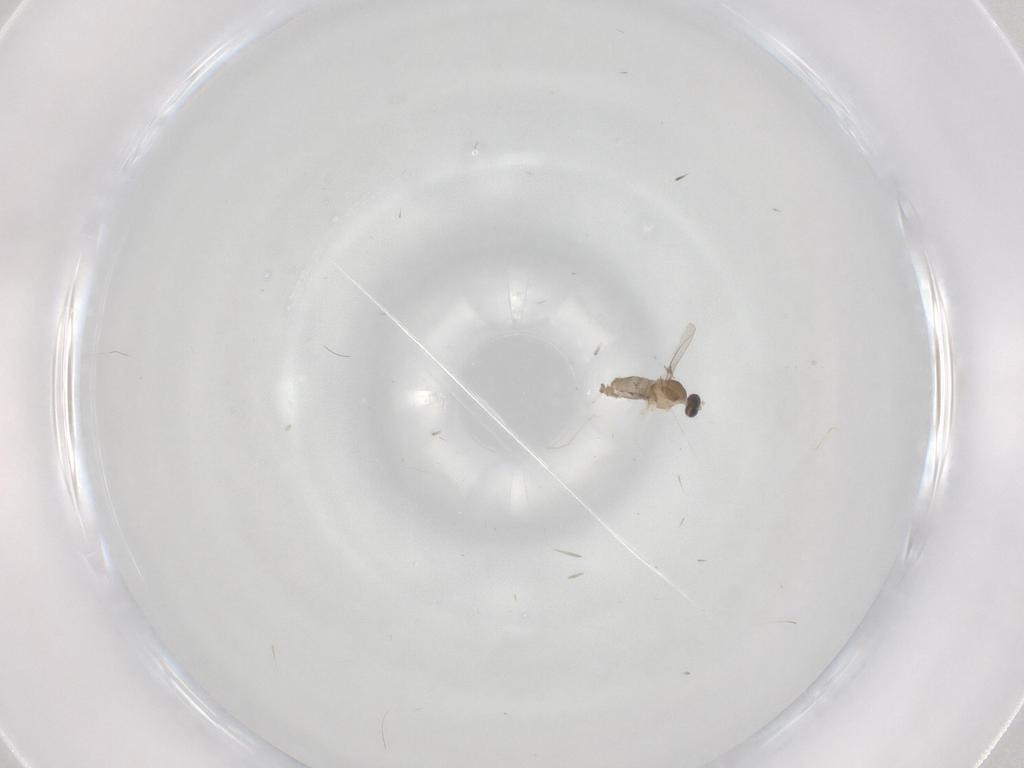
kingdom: Animalia
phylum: Arthropoda
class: Insecta
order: Diptera
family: Cecidomyiidae
